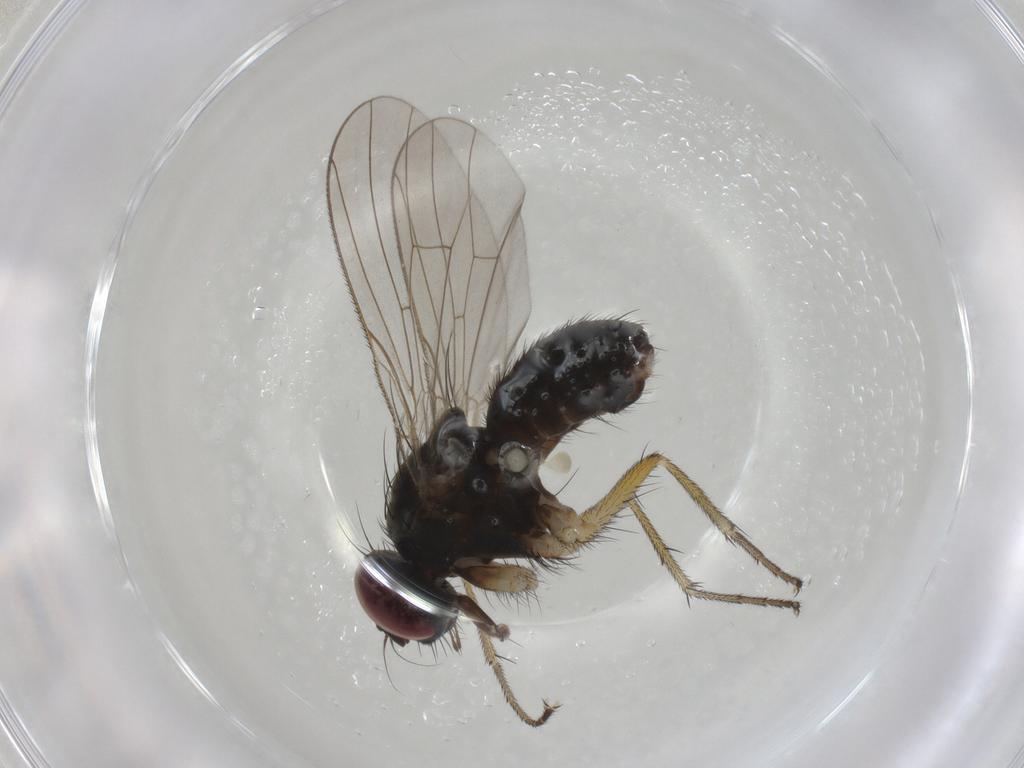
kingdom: Animalia
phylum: Arthropoda
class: Insecta
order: Diptera
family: Muscidae
